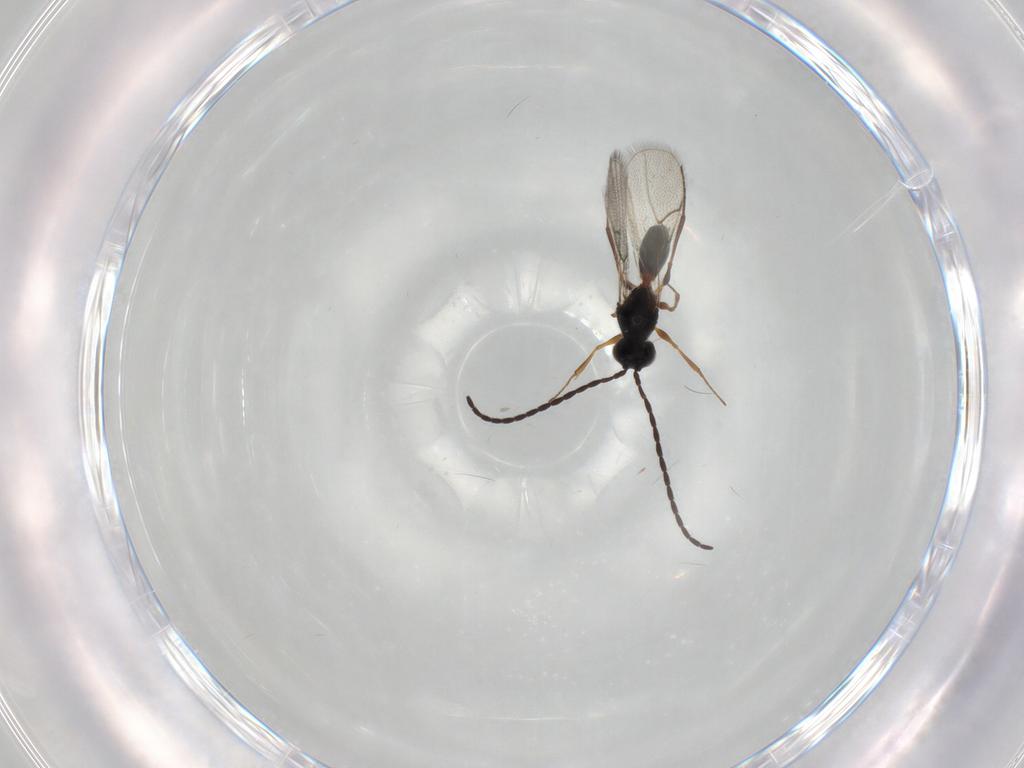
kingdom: Animalia
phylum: Arthropoda
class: Insecta
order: Hymenoptera
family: Figitidae
